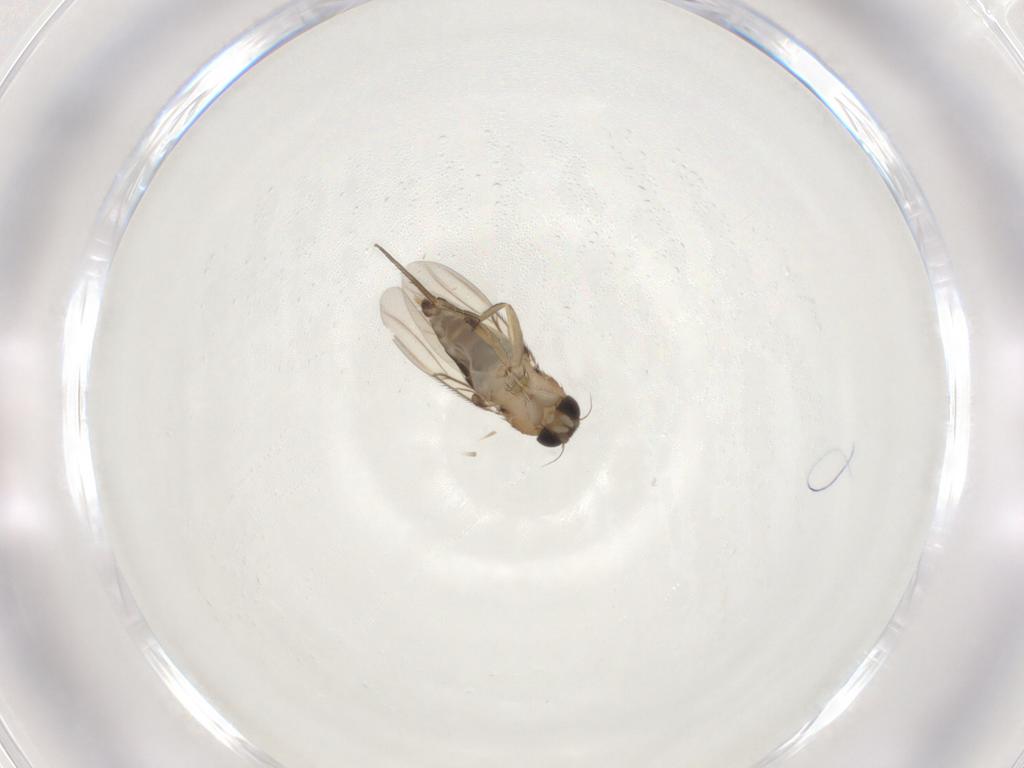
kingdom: Animalia
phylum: Arthropoda
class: Insecta
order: Diptera
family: Phoridae
